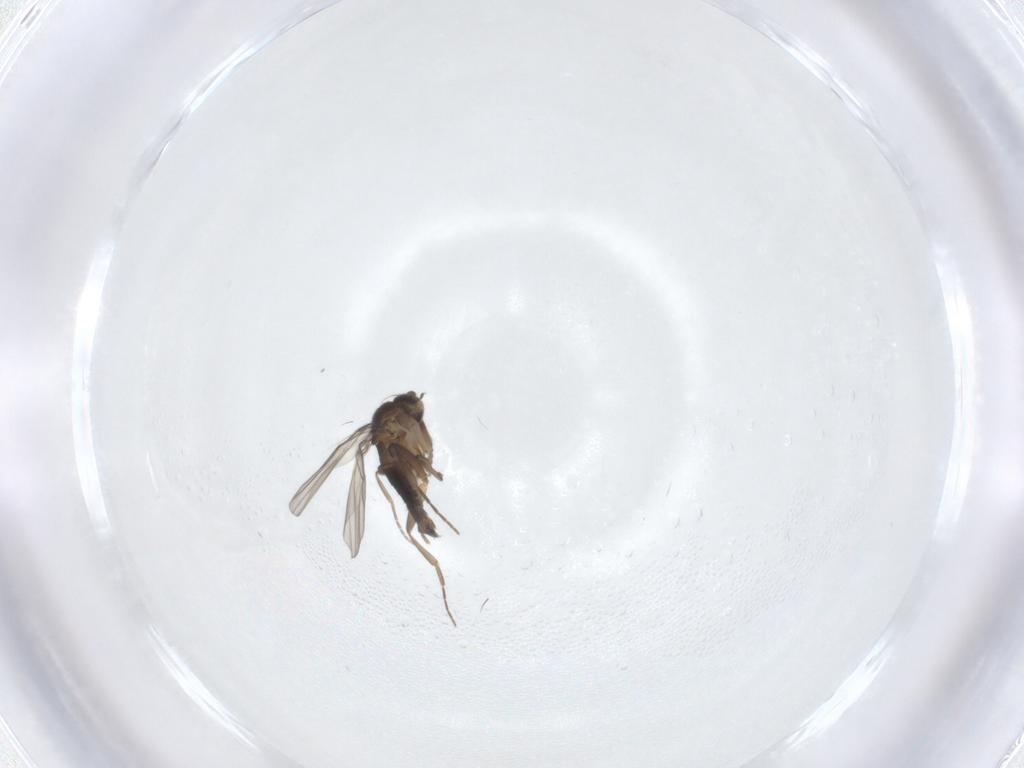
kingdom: Animalia
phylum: Arthropoda
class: Insecta
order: Diptera
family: Phoridae
